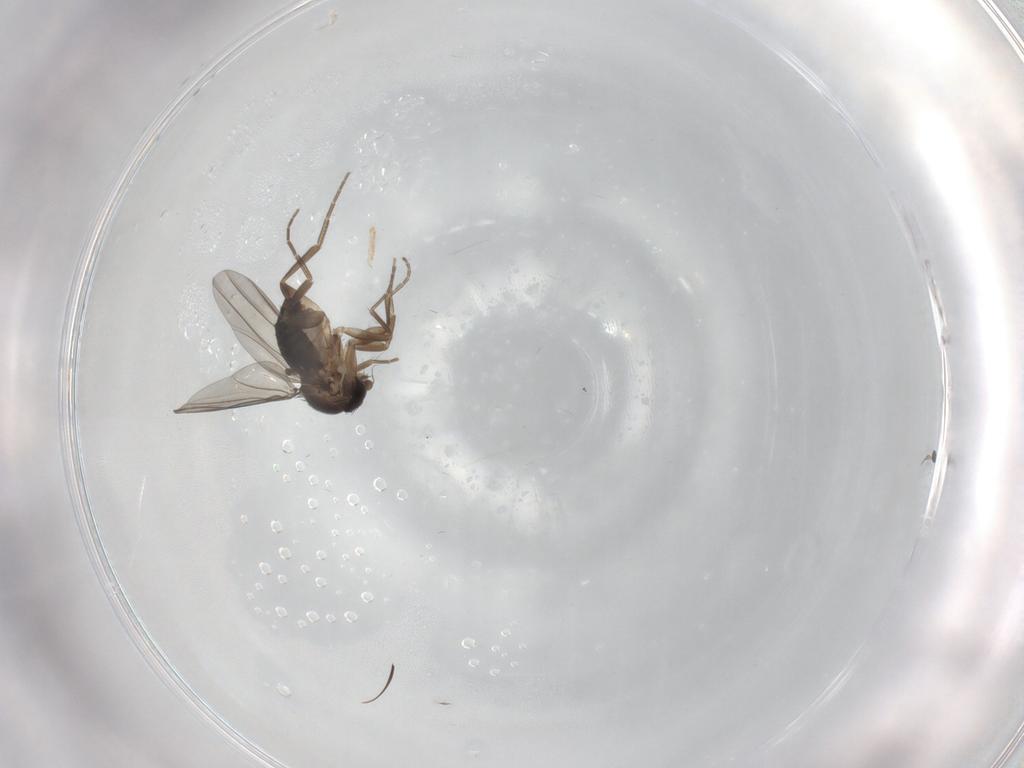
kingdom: Animalia
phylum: Arthropoda
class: Insecta
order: Diptera
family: Phoridae
